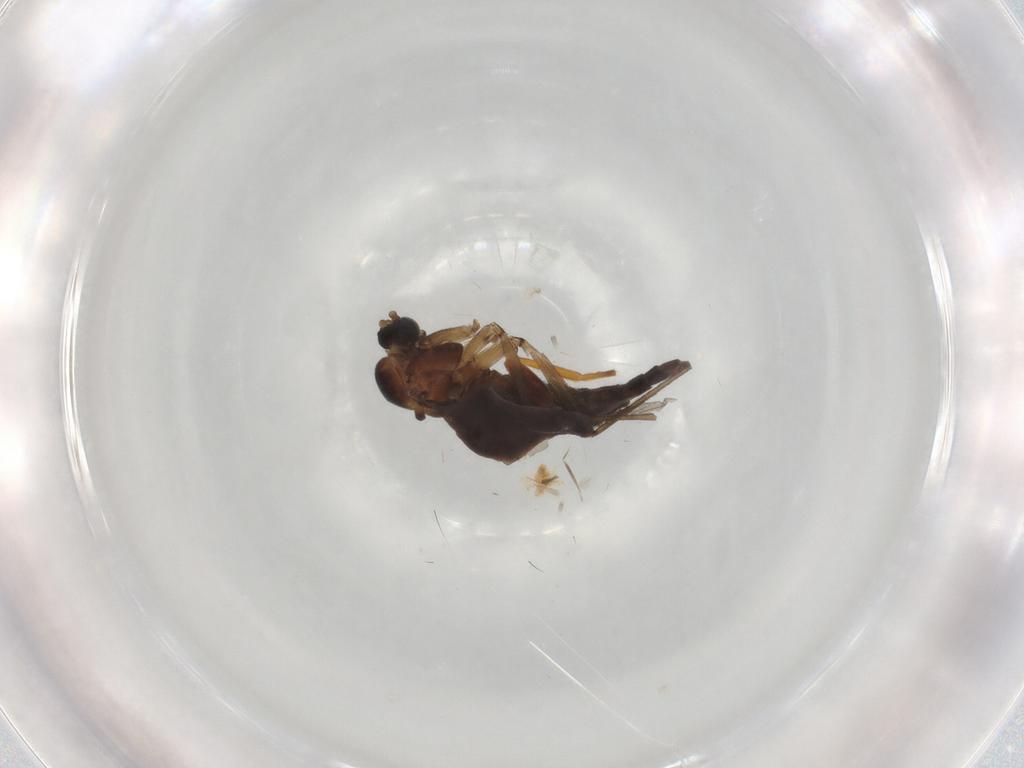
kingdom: Animalia
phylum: Arthropoda
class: Insecta
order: Diptera
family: Chloropidae
